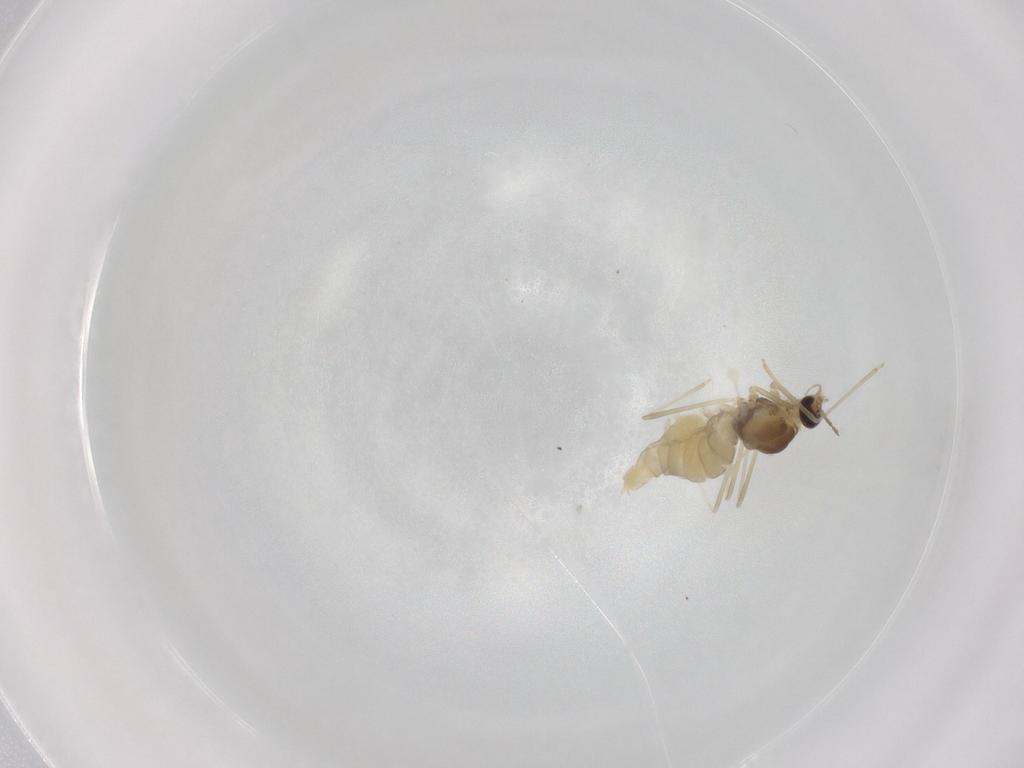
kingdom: Animalia
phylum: Arthropoda
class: Insecta
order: Diptera
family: Cecidomyiidae
